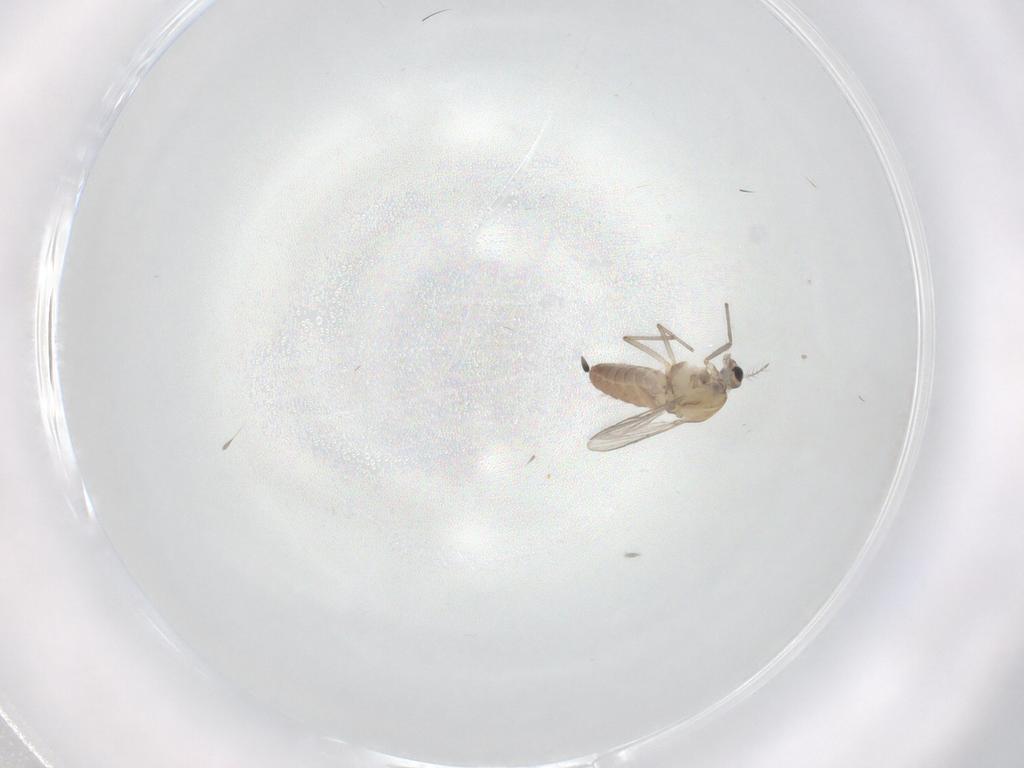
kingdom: Animalia
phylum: Arthropoda
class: Insecta
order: Diptera
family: Chironomidae
